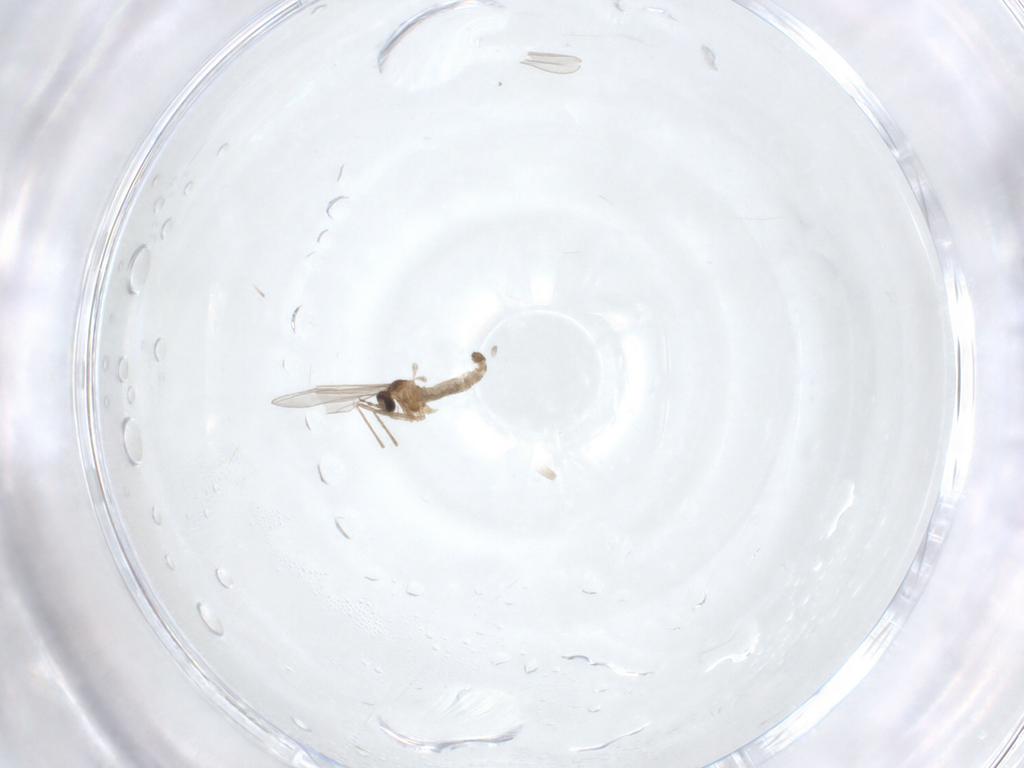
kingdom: Animalia
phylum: Arthropoda
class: Insecta
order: Diptera
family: Cecidomyiidae
